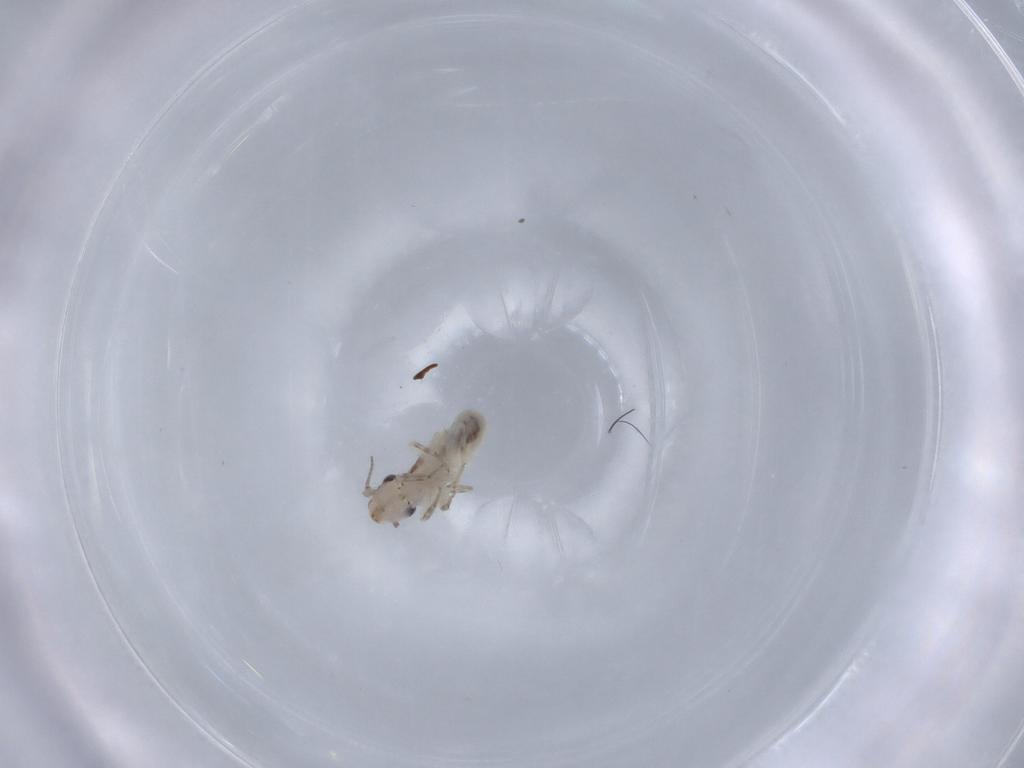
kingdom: Animalia
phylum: Arthropoda
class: Insecta
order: Psocodea
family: Lepidopsocidae
